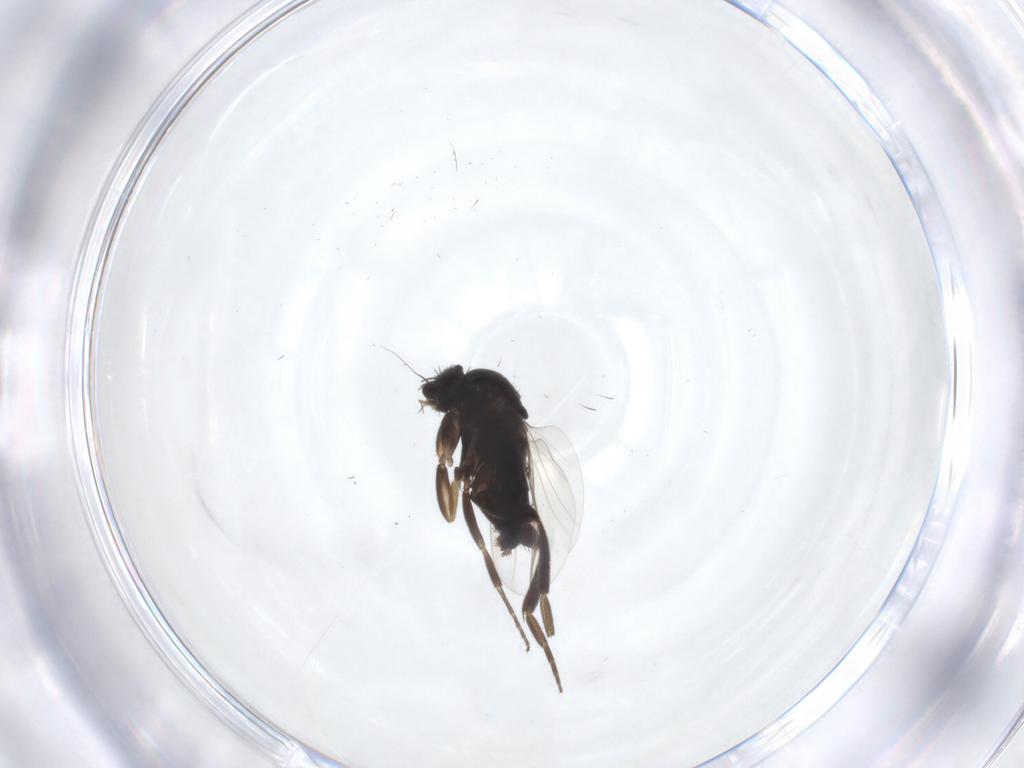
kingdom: Animalia
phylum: Arthropoda
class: Insecta
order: Diptera
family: Phoridae
